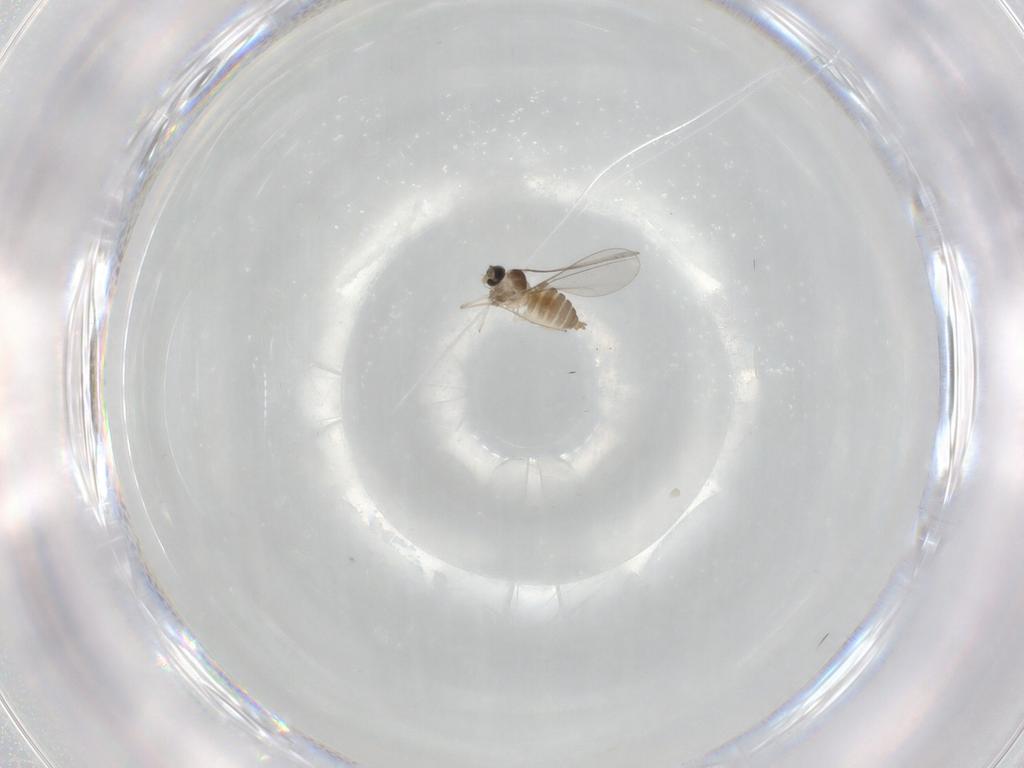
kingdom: Animalia
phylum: Arthropoda
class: Insecta
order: Diptera
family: Cecidomyiidae
